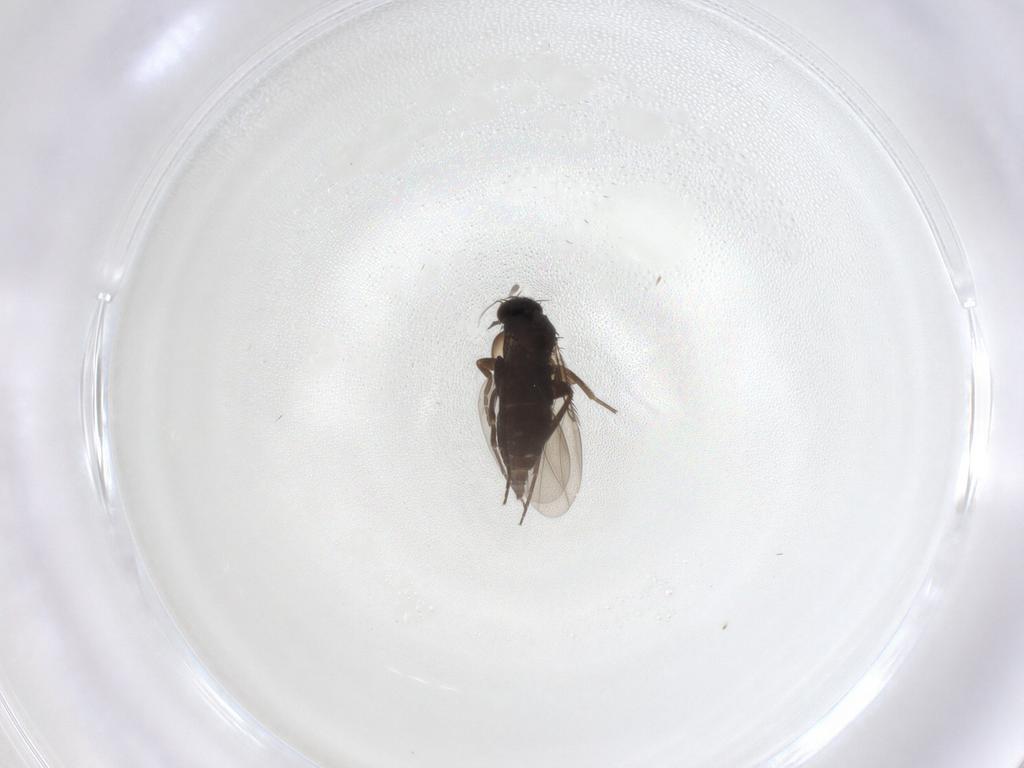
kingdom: Animalia
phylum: Arthropoda
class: Insecta
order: Diptera
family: Phoridae
